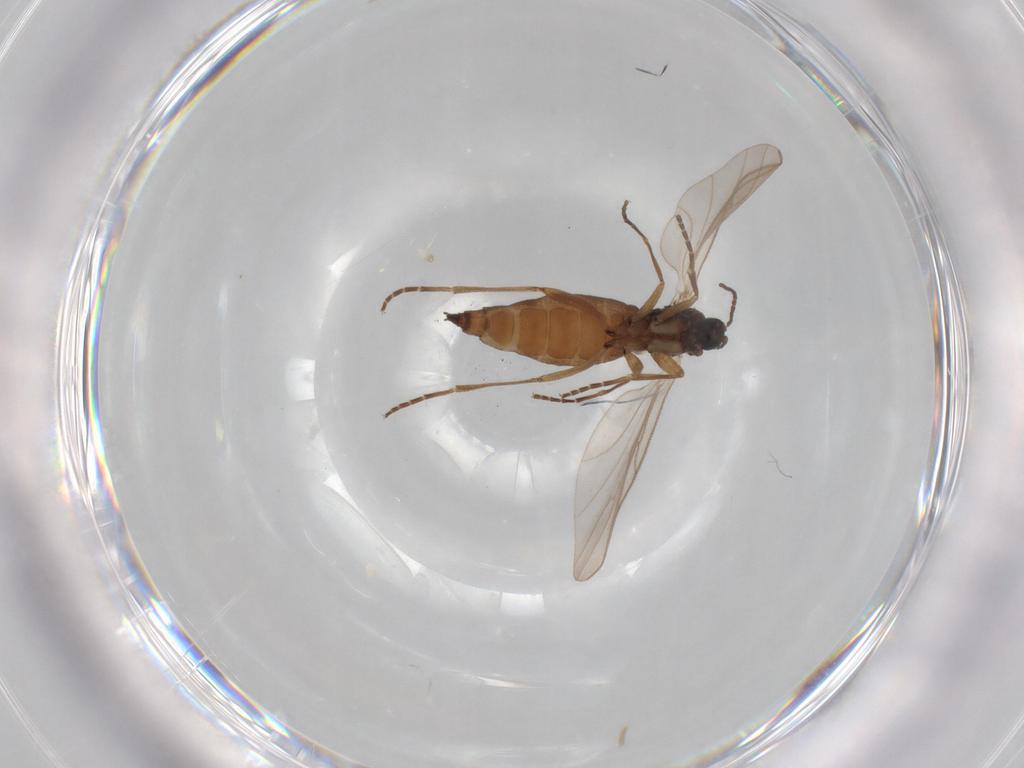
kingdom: Animalia
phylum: Arthropoda
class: Insecta
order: Diptera
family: Sciaridae
